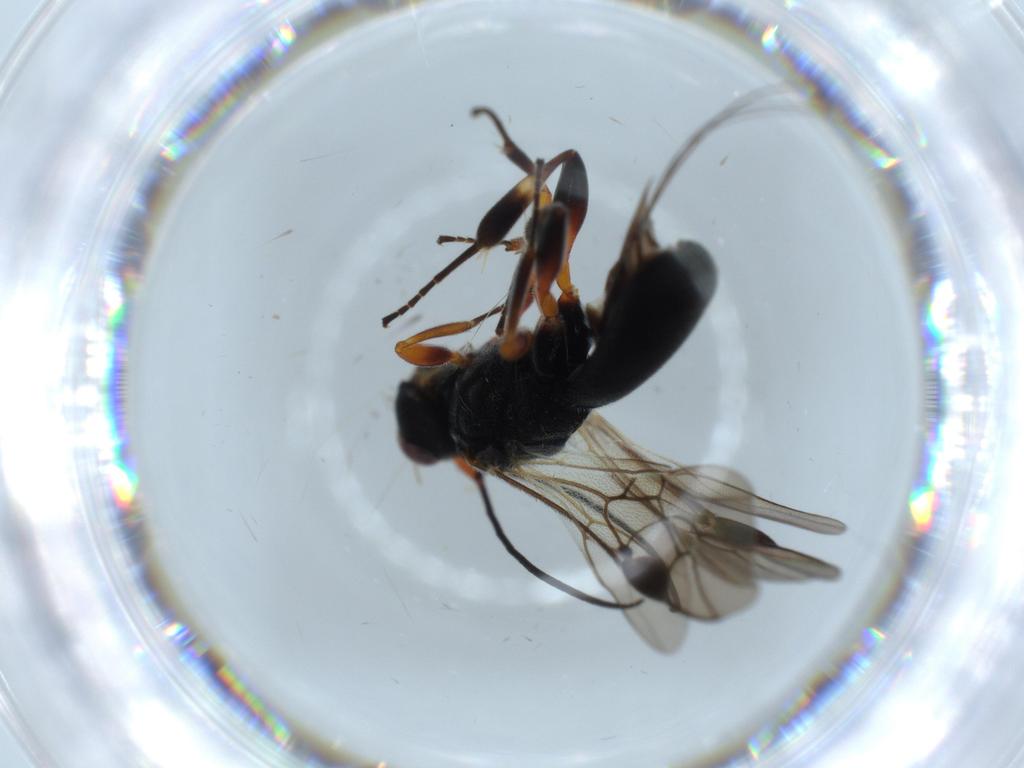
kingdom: Animalia
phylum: Arthropoda
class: Insecta
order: Hymenoptera
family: Braconidae
